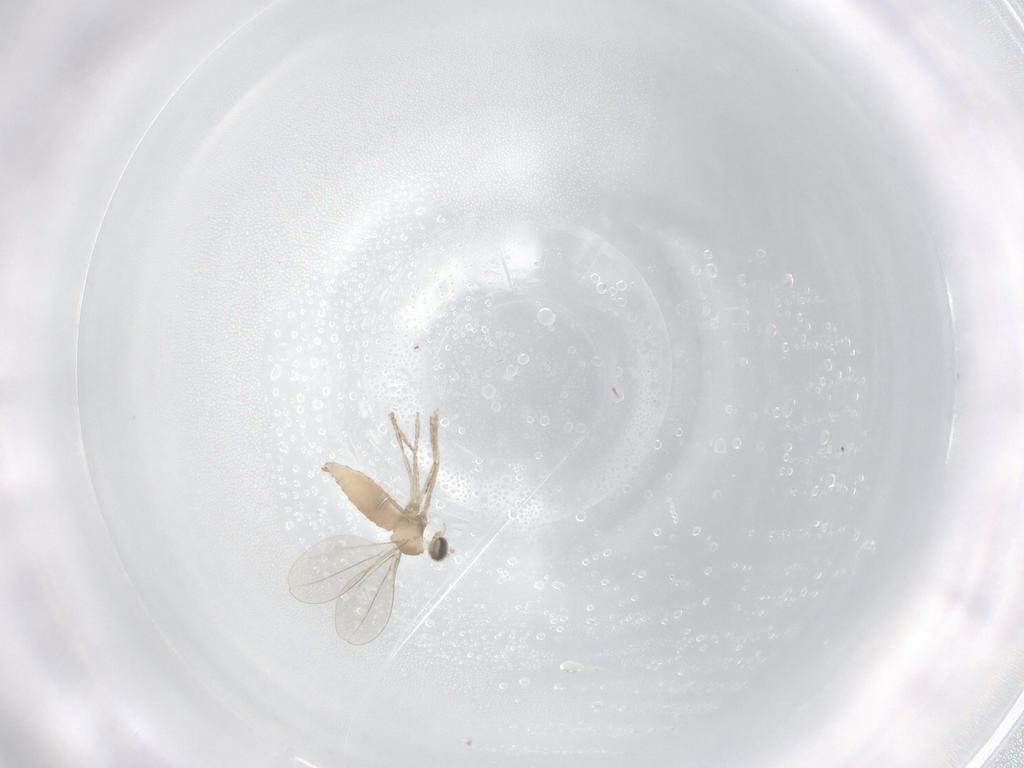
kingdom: Animalia
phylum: Arthropoda
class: Insecta
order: Diptera
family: Cecidomyiidae
